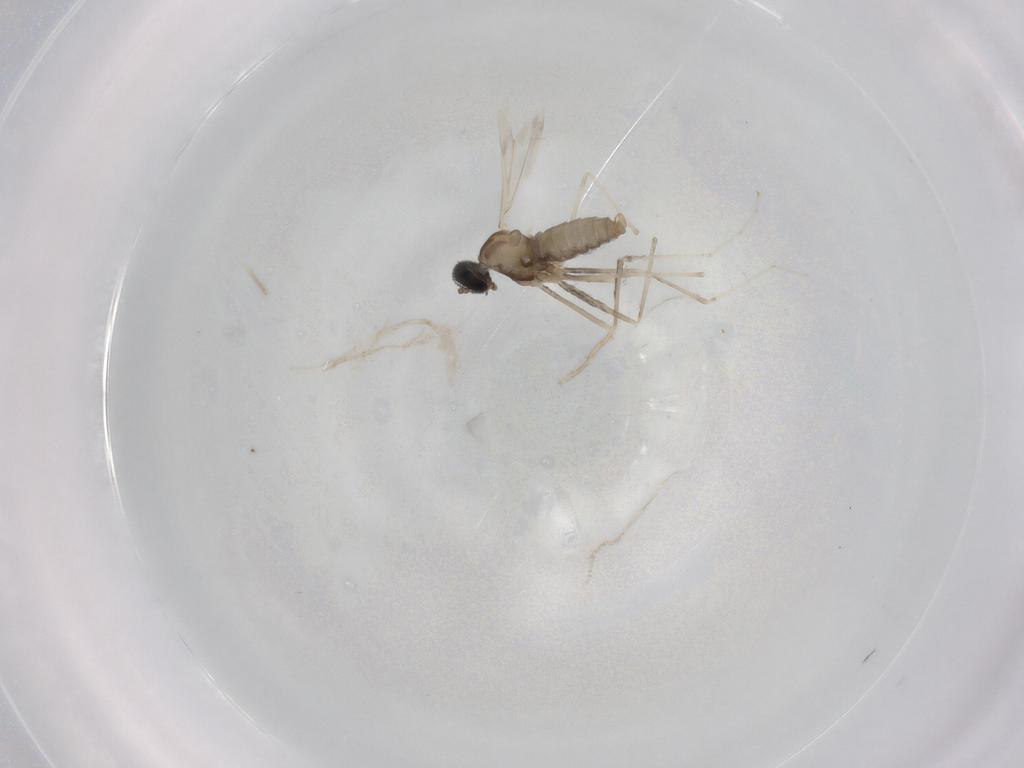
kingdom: Animalia
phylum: Arthropoda
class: Insecta
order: Diptera
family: Cecidomyiidae
